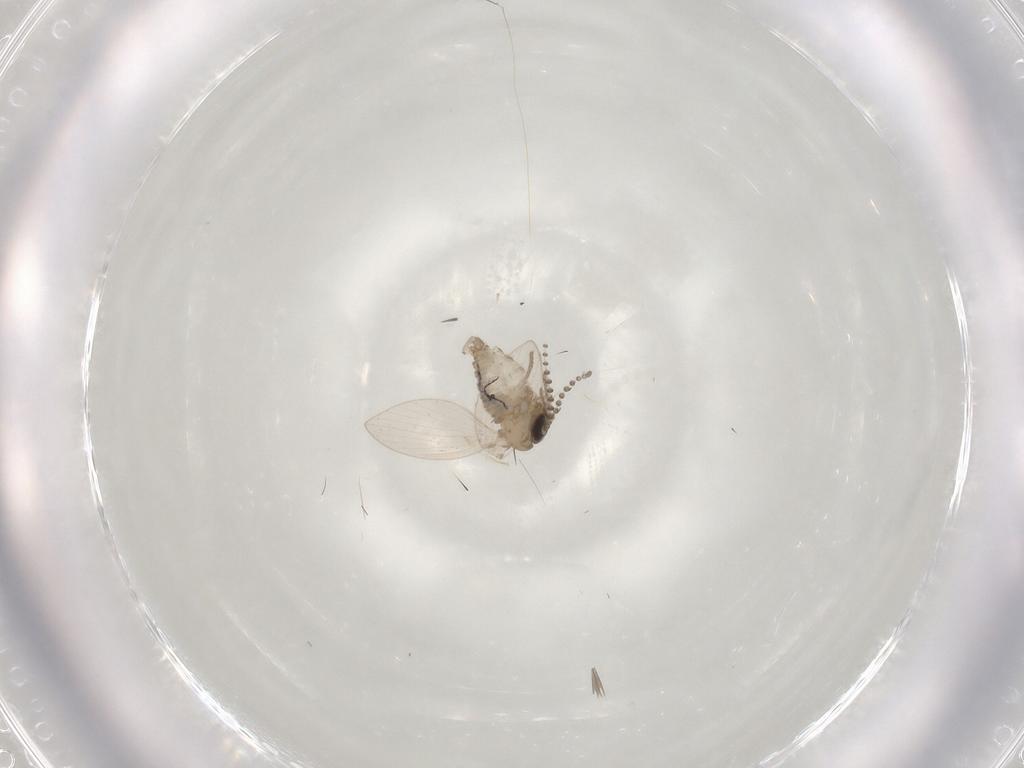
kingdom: Animalia
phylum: Arthropoda
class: Insecta
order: Diptera
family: Psychodidae
